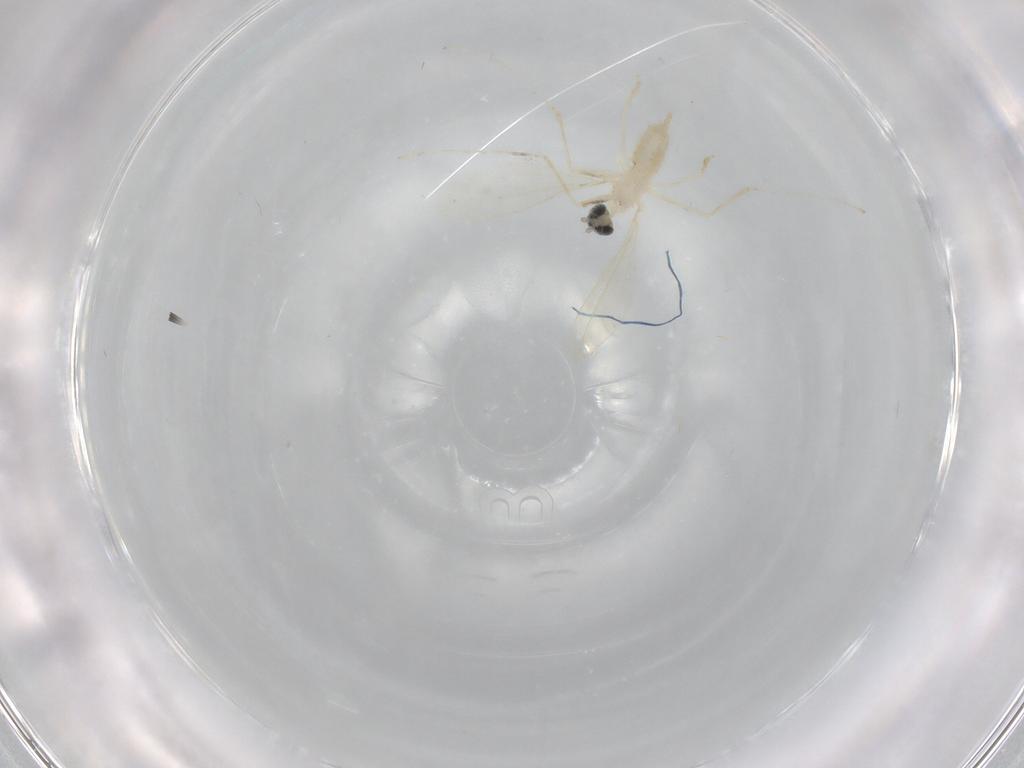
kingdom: Animalia
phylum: Arthropoda
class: Insecta
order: Diptera
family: Cecidomyiidae
